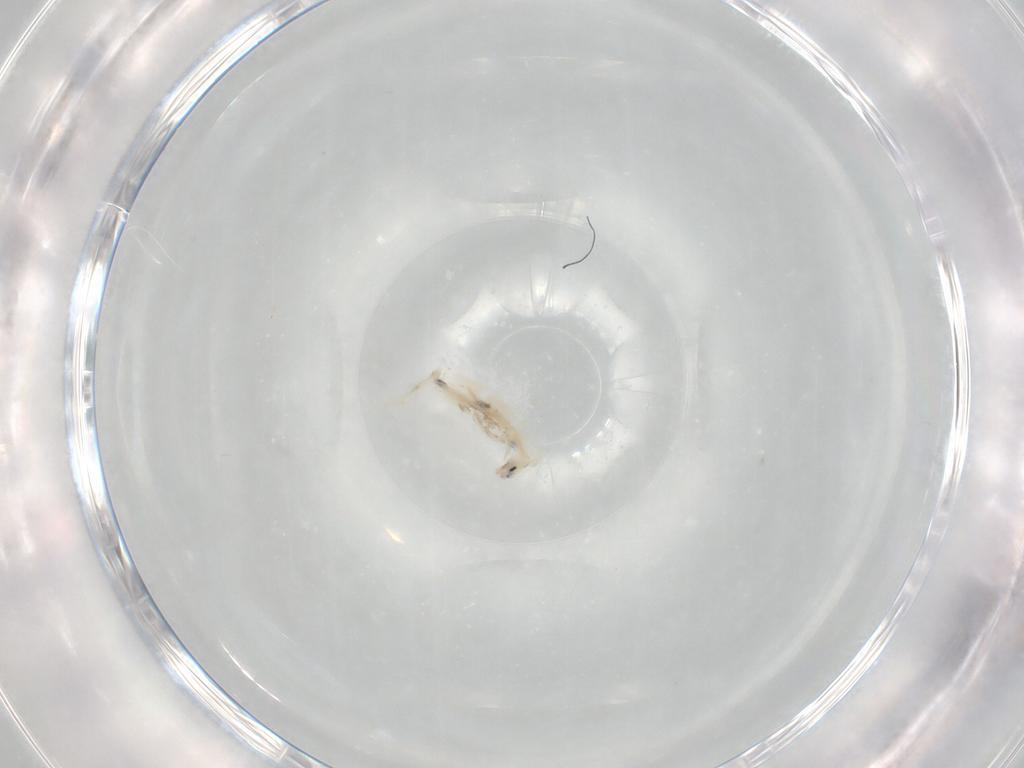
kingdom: Animalia
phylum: Arthropoda
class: Collembola
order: Entomobryomorpha
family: Entomobryidae
